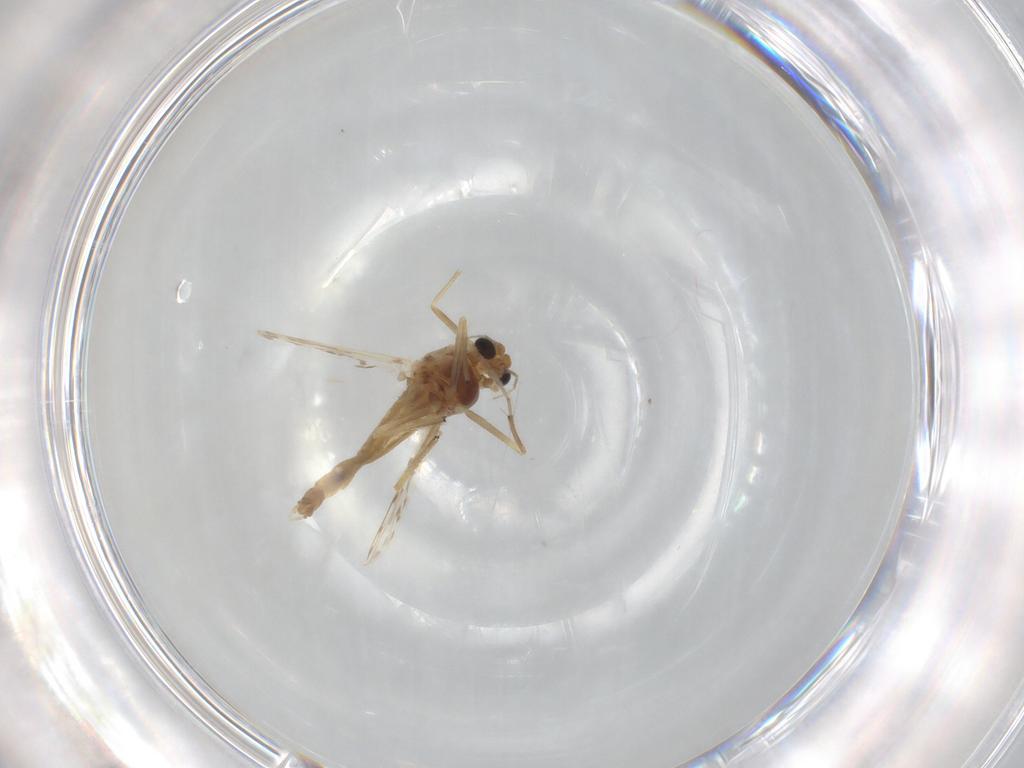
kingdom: Animalia
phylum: Arthropoda
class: Insecta
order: Diptera
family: Chironomidae
